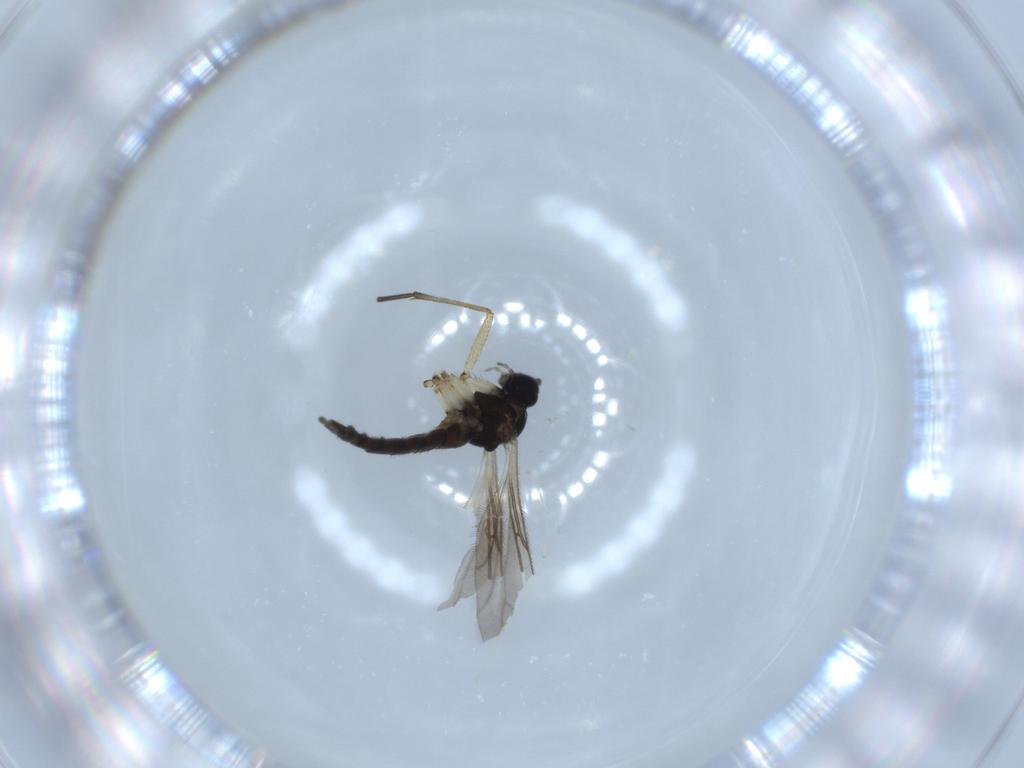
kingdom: Animalia
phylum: Arthropoda
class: Insecta
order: Diptera
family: Sciaridae
